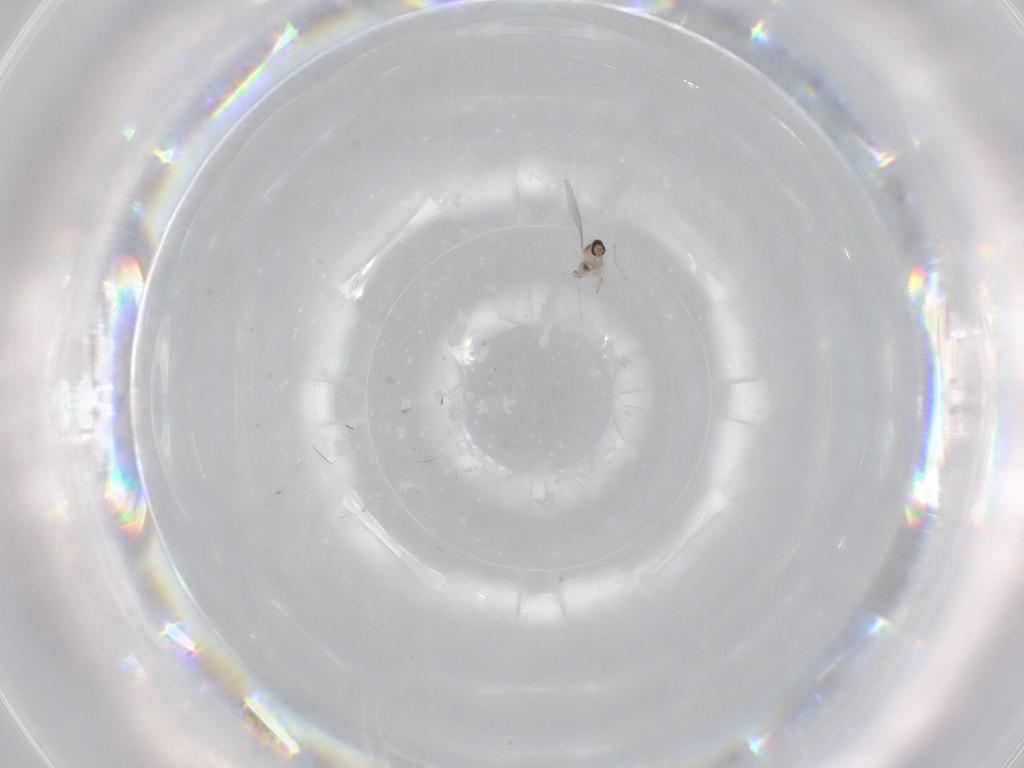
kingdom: Animalia
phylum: Arthropoda
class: Insecta
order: Diptera
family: Cecidomyiidae
